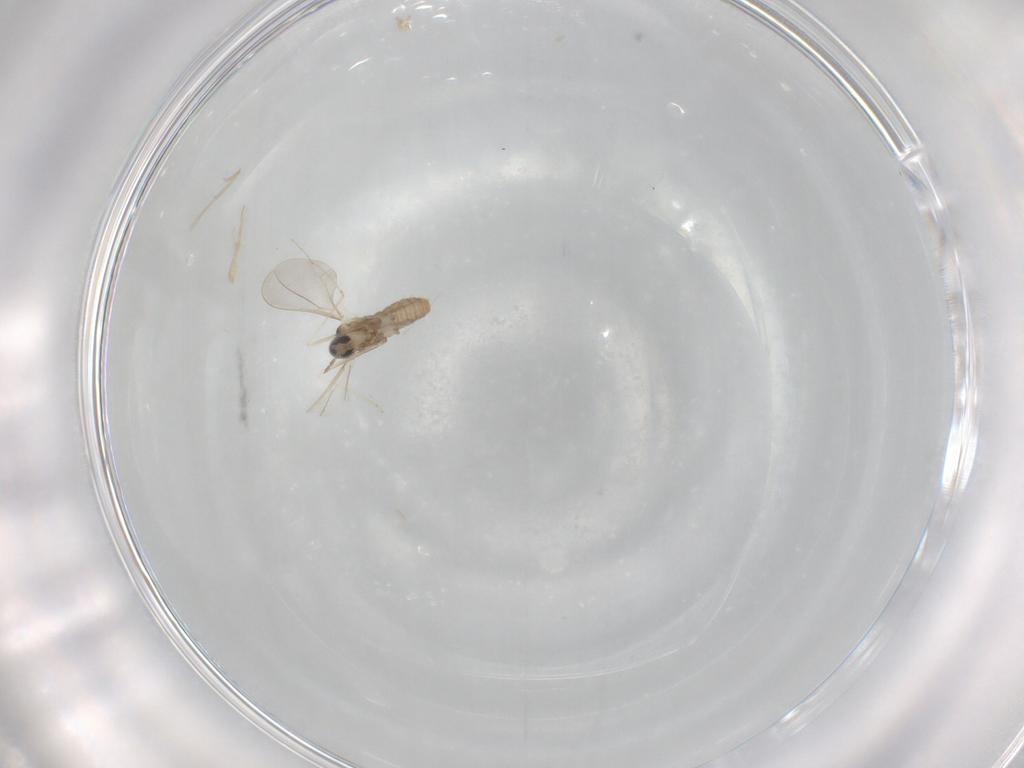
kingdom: Animalia
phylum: Arthropoda
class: Insecta
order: Diptera
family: Cecidomyiidae
